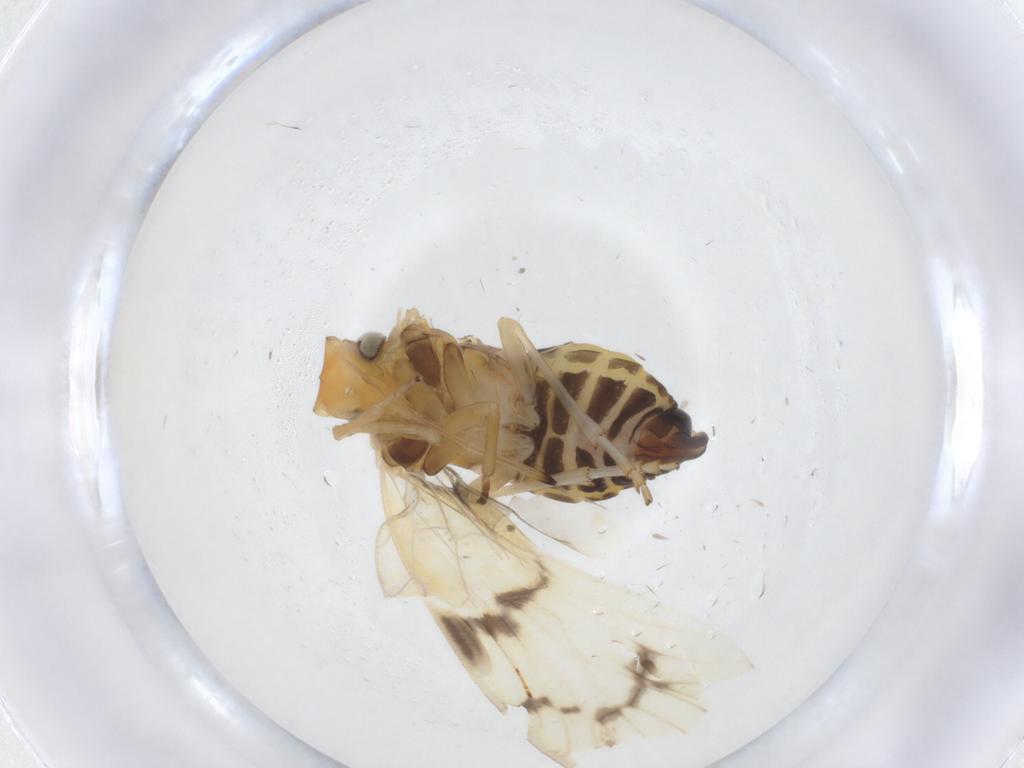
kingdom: Animalia
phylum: Arthropoda
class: Insecta
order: Hemiptera
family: Cixiidae
